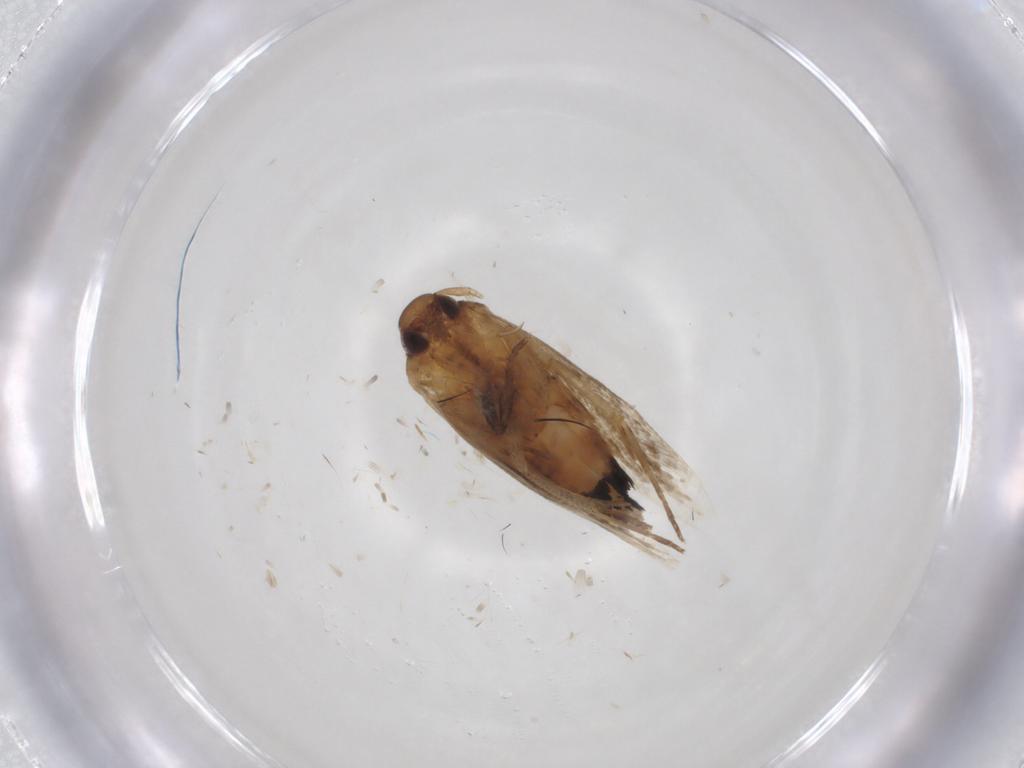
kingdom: Animalia
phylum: Arthropoda
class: Insecta
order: Lepidoptera
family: Cosmopterigidae
